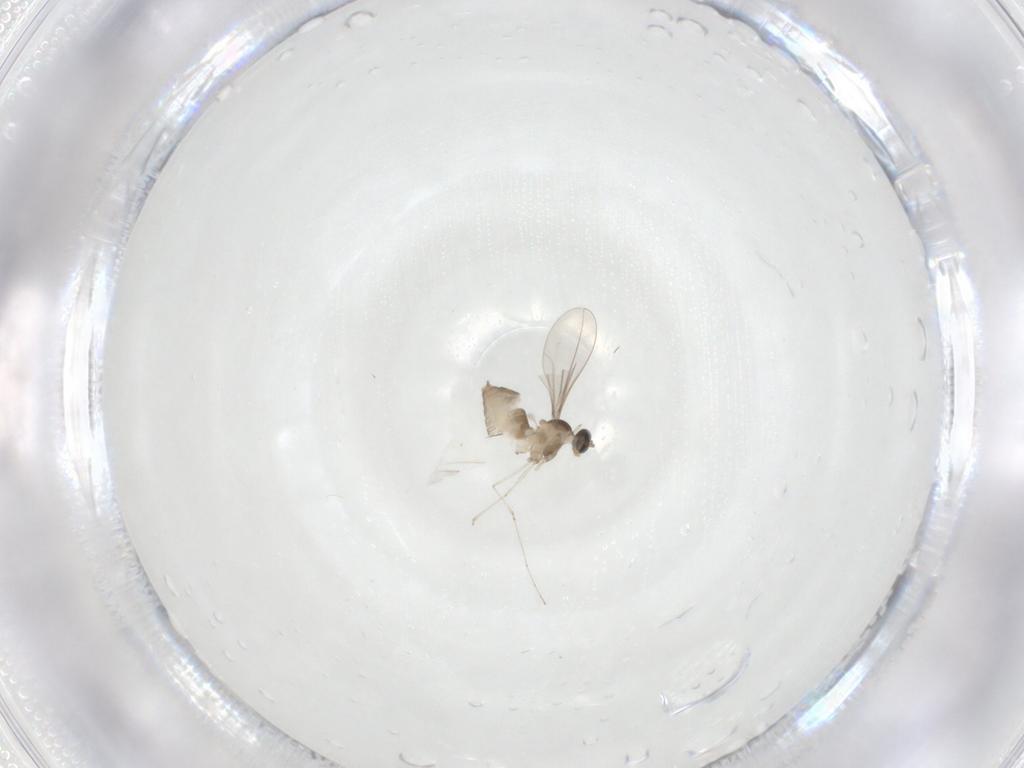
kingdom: Animalia
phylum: Arthropoda
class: Insecta
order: Diptera
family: Cecidomyiidae
